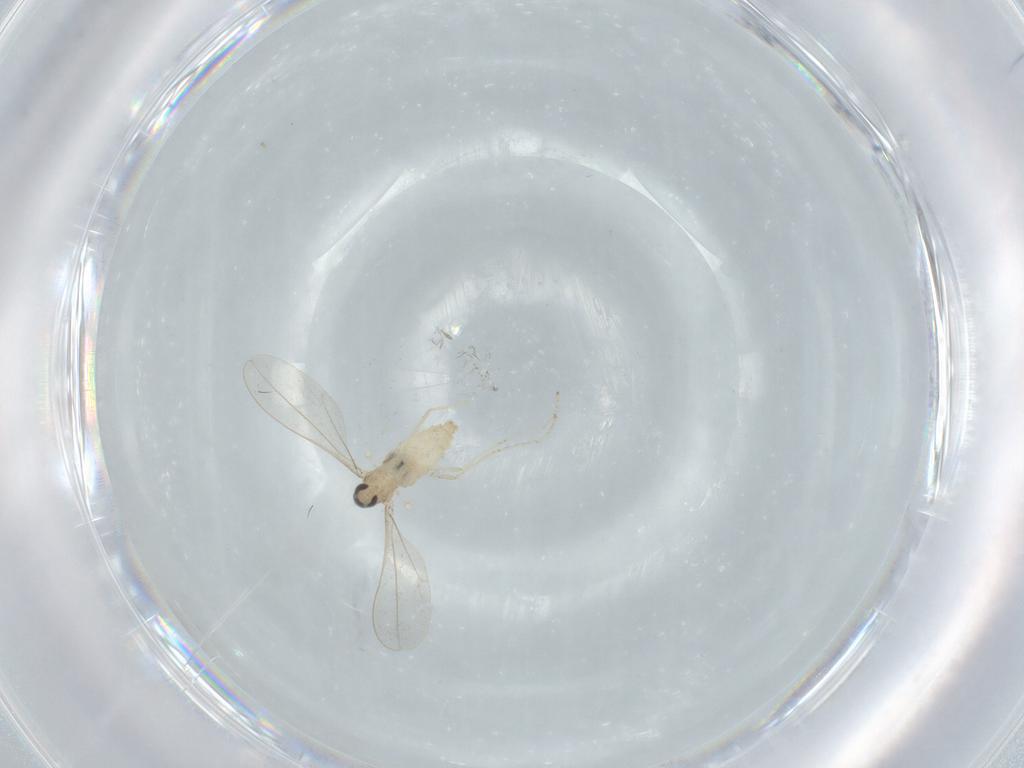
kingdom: Animalia
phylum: Arthropoda
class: Insecta
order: Diptera
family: Cecidomyiidae
